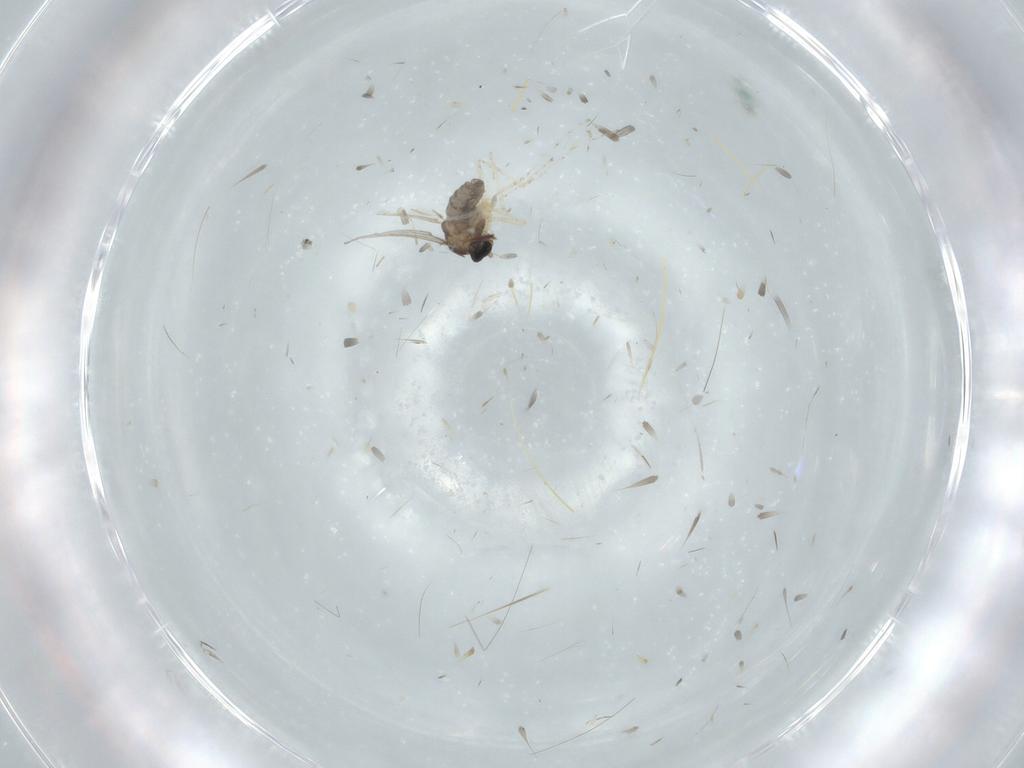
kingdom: Animalia
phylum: Arthropoda
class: Insecta
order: Diptera
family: Cecidomyiidae
